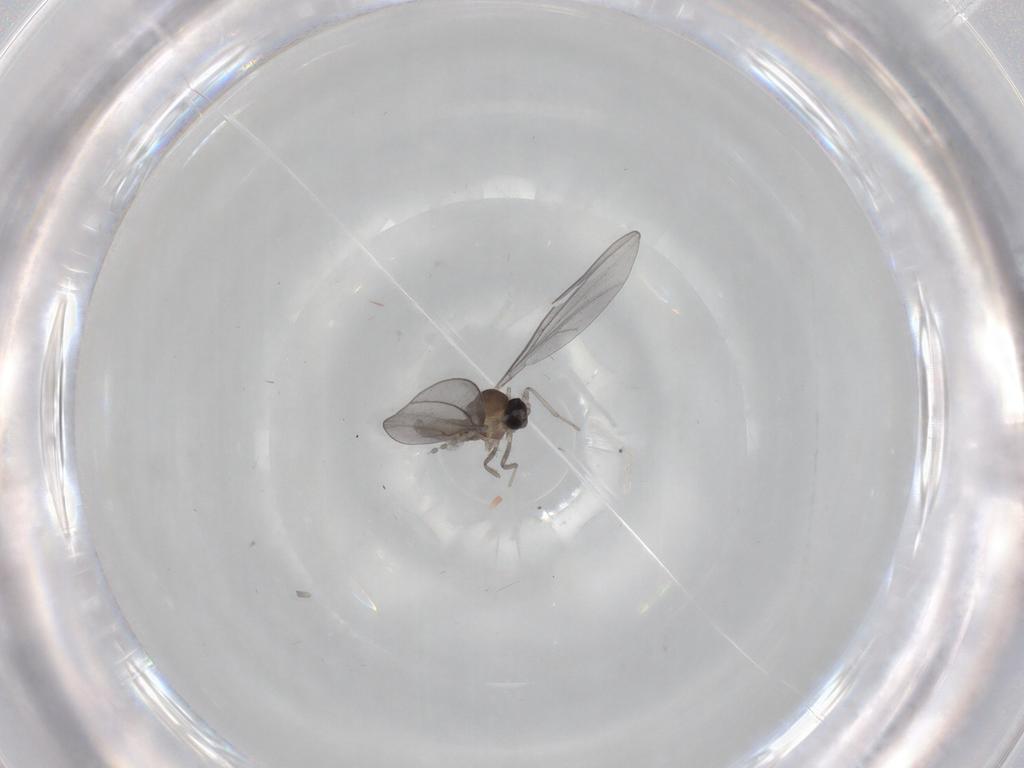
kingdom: Animalia
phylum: Arthropoda
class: Insecta
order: Diptera
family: Cecidomyiidae
